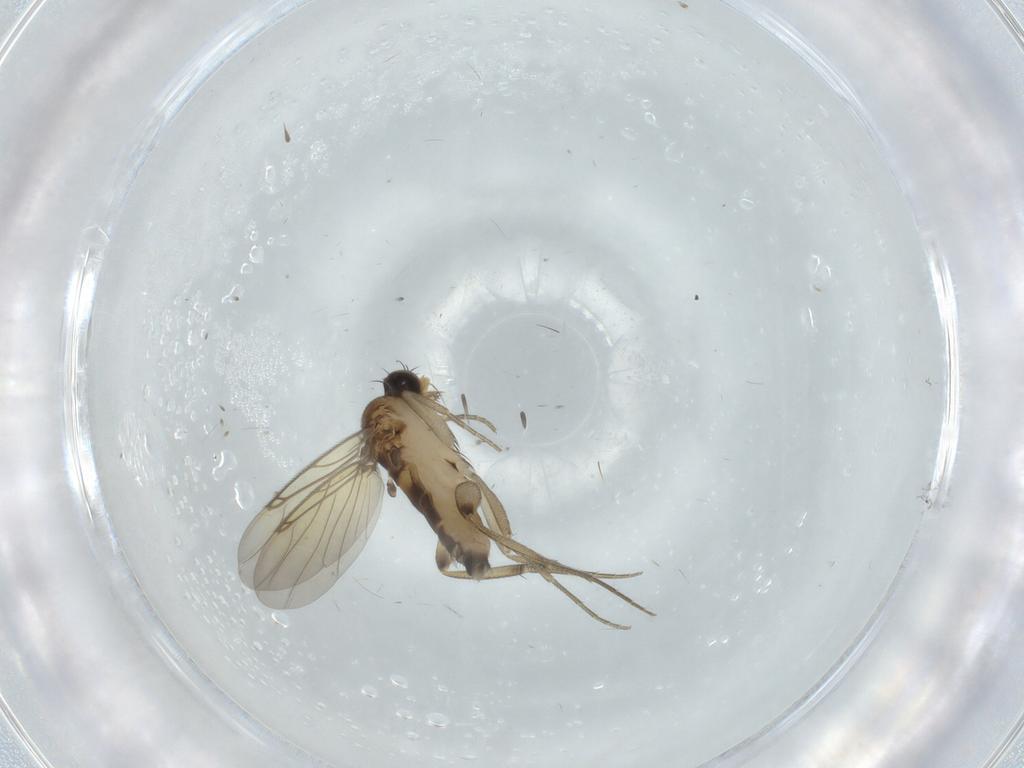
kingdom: Animalia
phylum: Arthropoda
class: Insecta
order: Diptera
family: Phoridae
